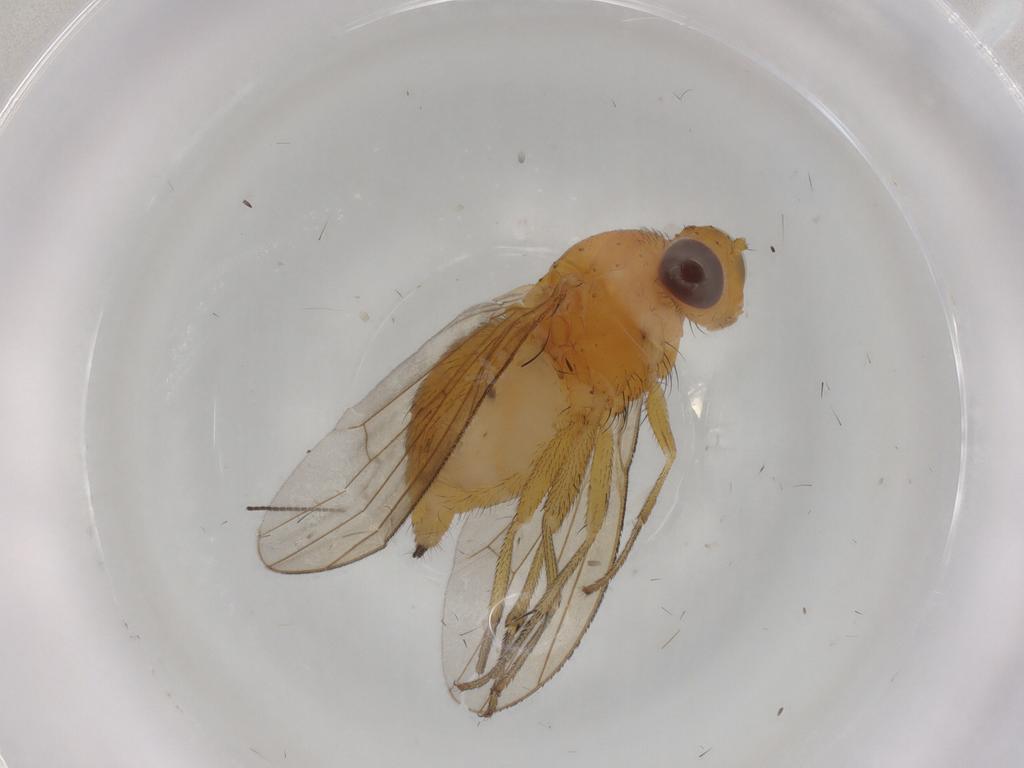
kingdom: Animalia
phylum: Arthropoda
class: Insecta
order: Diptera
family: Lauxaniidae
